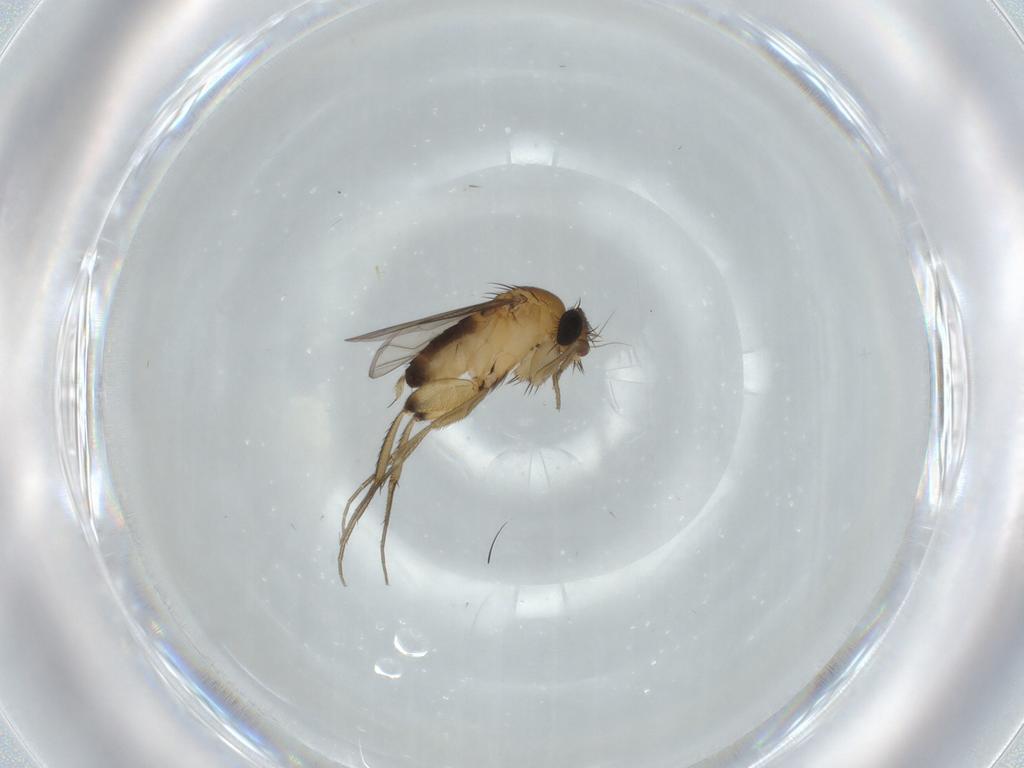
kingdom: Animalia
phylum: Arthropoda
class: Insecta
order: Diptera
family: Phoridae
